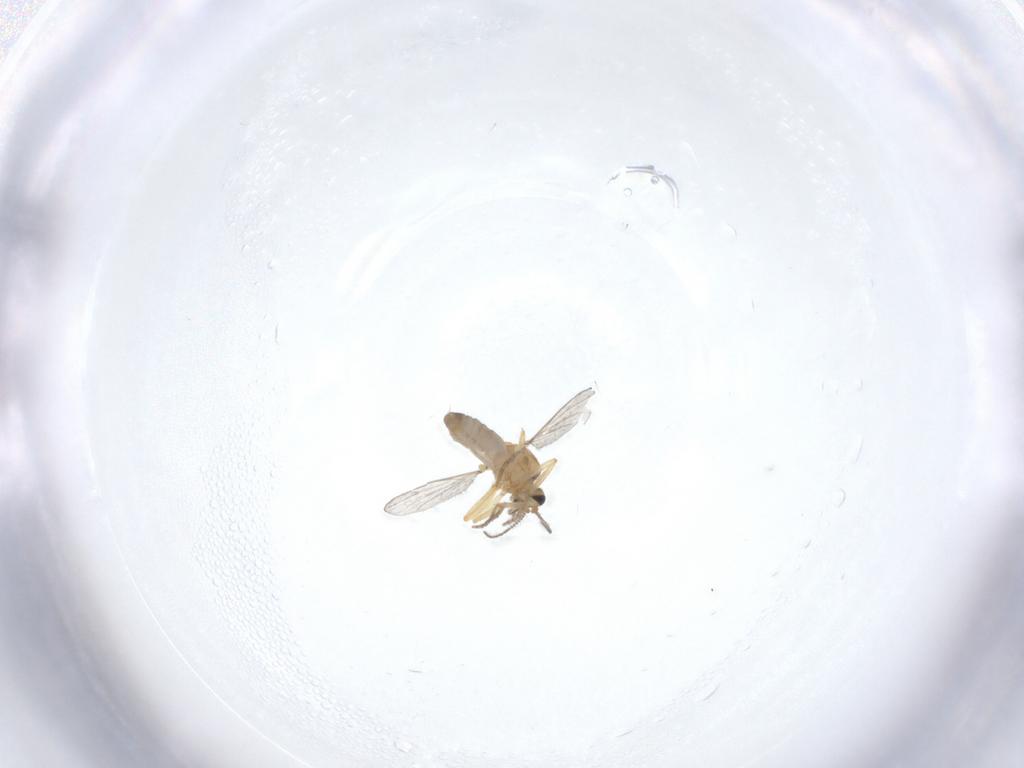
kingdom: Animalia
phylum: Arthropoda
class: Insecta
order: Diptera
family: Ceratopogonidae
